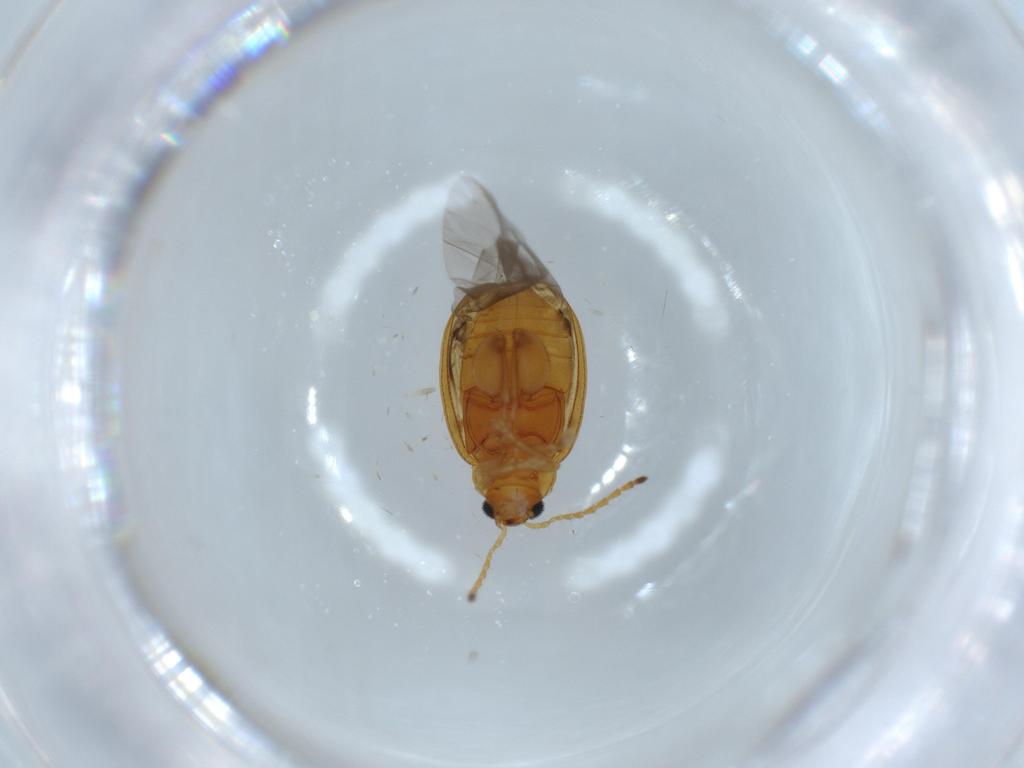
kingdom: Animalia
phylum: Arthropoda
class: Insecta
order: Coleoptera
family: Chrysomelidae
